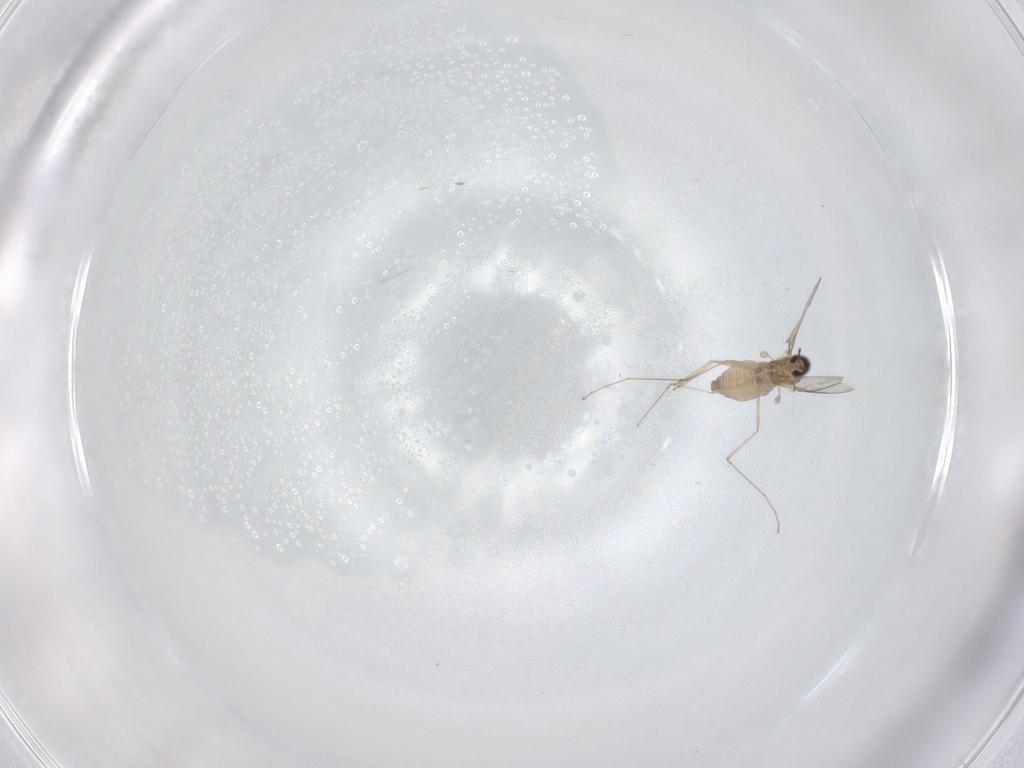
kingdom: Animalia
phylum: Arthropoda
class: Insecta
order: Diptera
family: Cecidomyiidae
